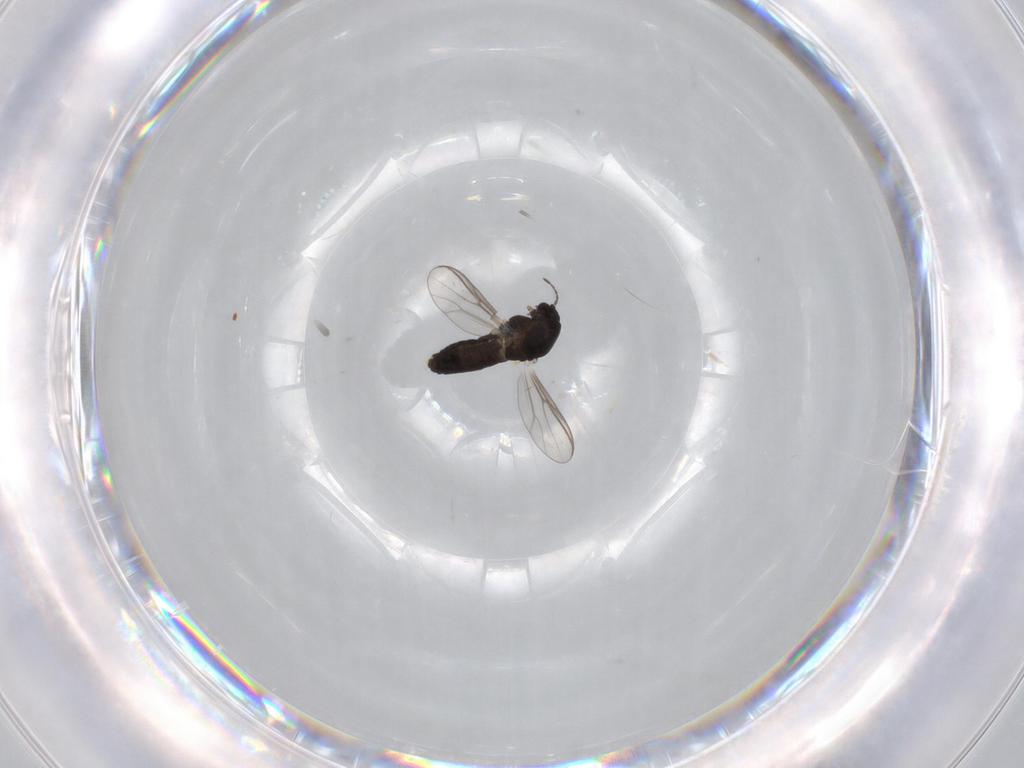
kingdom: Animalia
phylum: Arthropoda
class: Insecta
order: Diptera
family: Chironomidae
